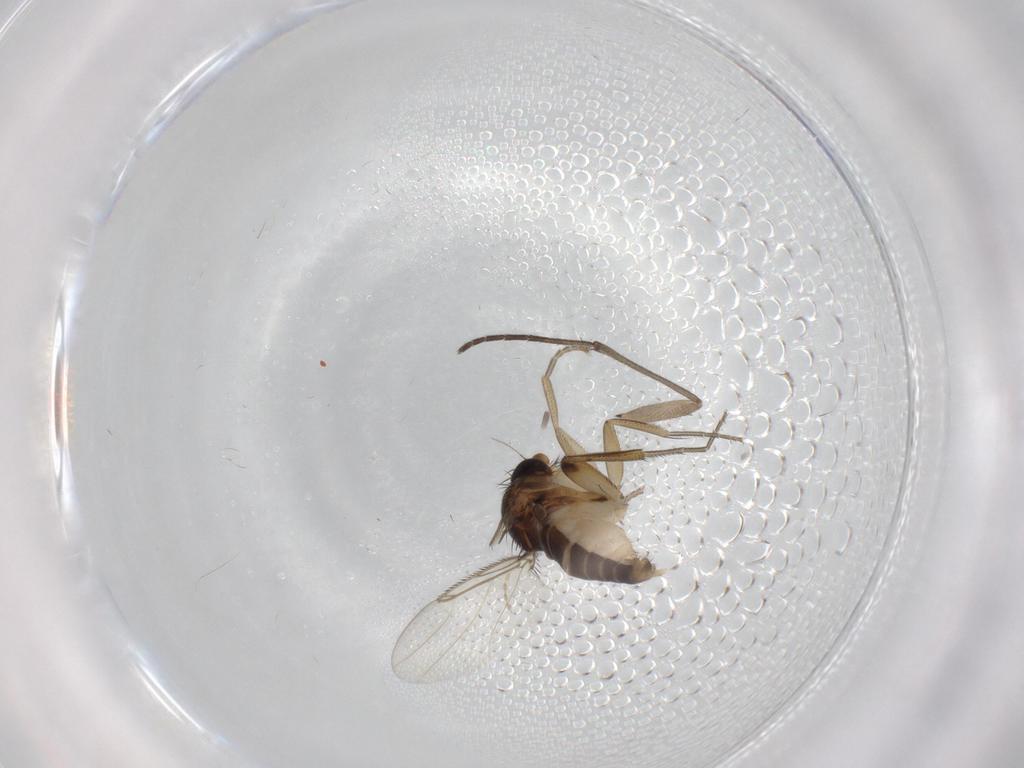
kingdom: Animalia
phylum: Arthropoda
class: Insecta
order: Diptera
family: Phoridae
